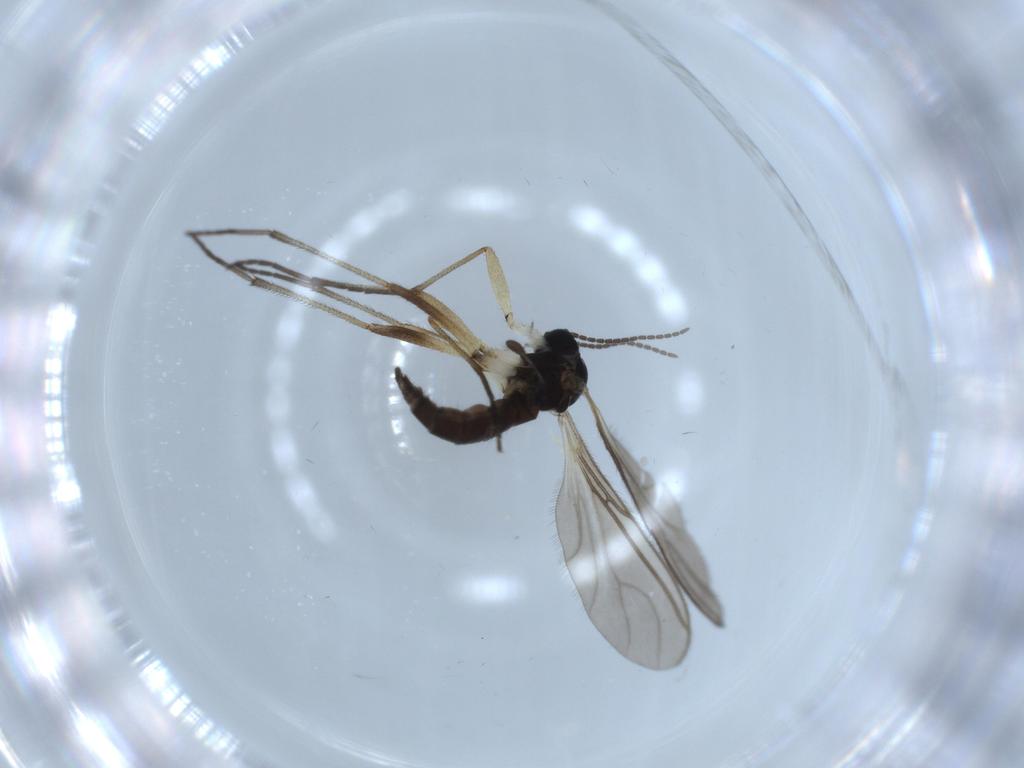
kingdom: Animalia
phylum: Arthropoda
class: Insecta
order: Diptera
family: Sciaridae
